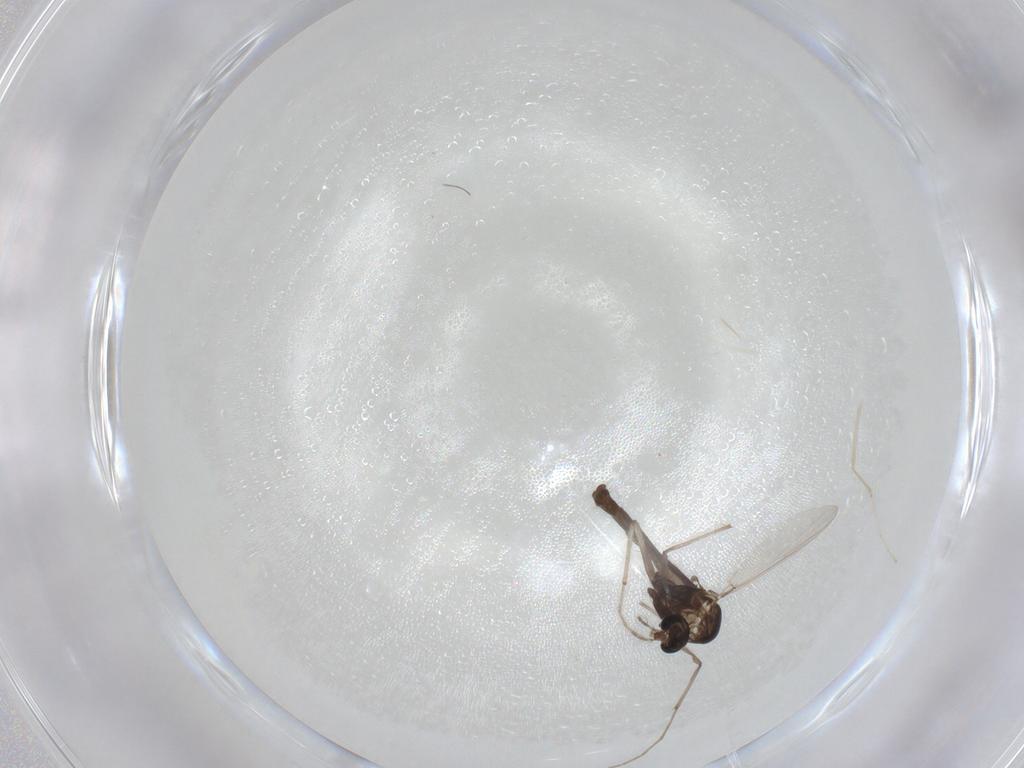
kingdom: Animalia
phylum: Arthropoda
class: Insecta
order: Diptera
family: Chironomidae
